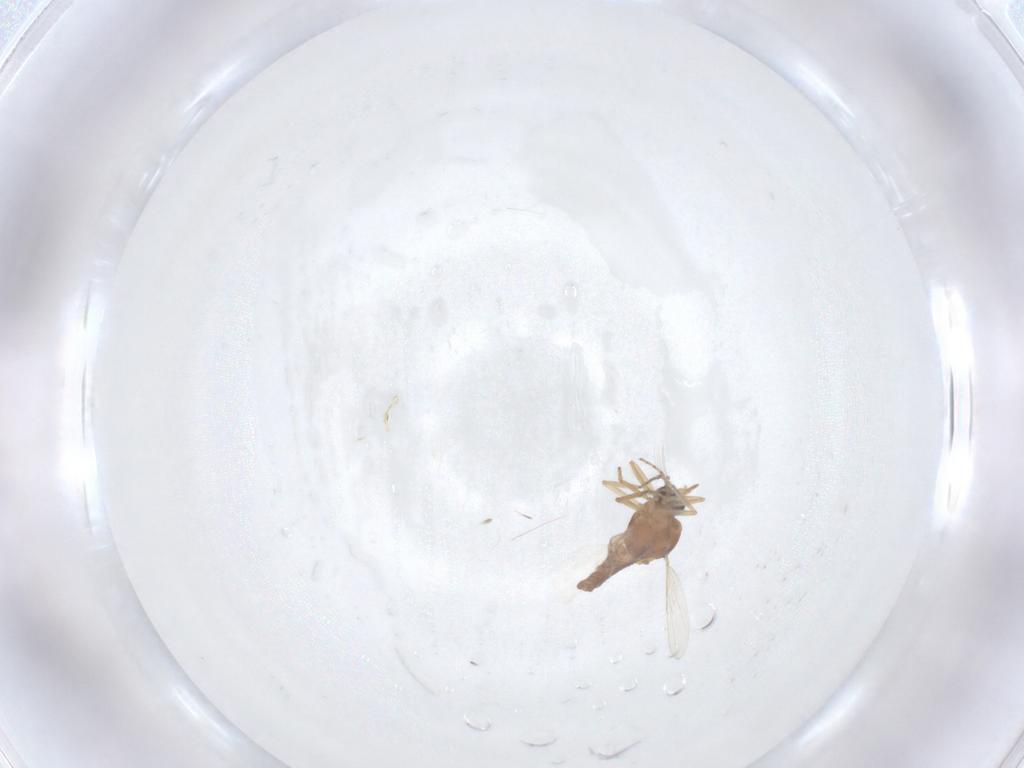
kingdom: Animalia
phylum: Arthropoda
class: Insecta
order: Diptera
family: Chironomidae
